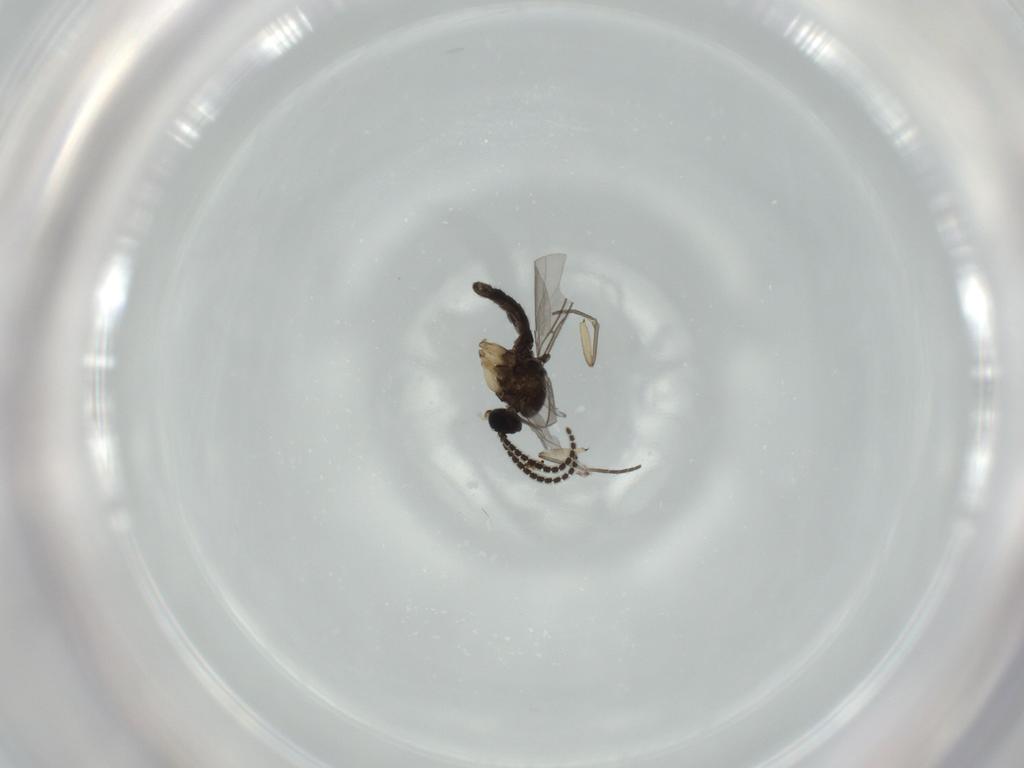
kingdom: Animalia
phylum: Arthropoda
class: Insecta
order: Diptera
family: Sciaridae
